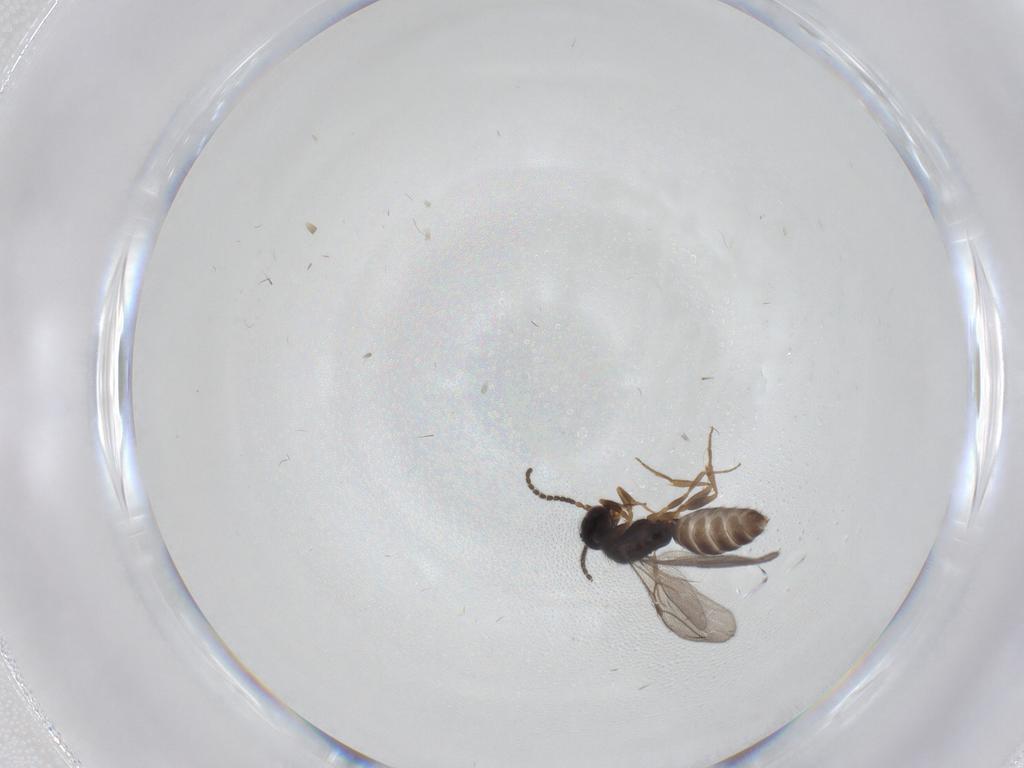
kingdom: Animalia
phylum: Arthropoda
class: Insecta
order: Hymenoptera
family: Bethylidae
